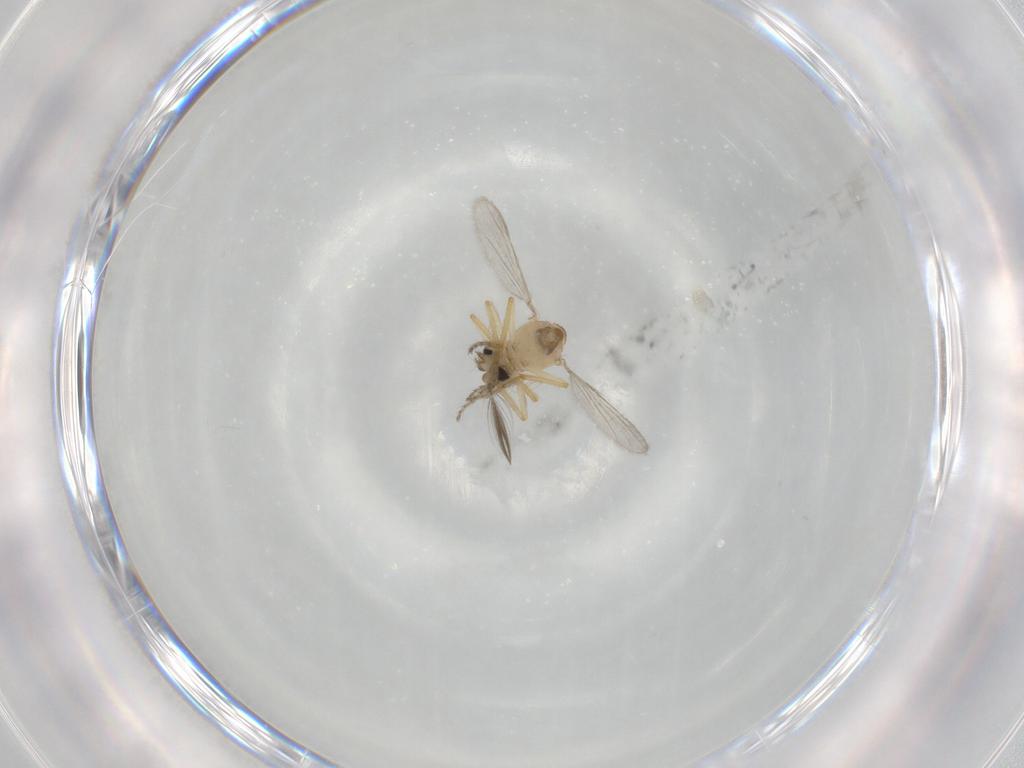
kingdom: Animalia
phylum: Arthropoda
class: Insecta
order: Diptera
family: Ceratopogonidae
